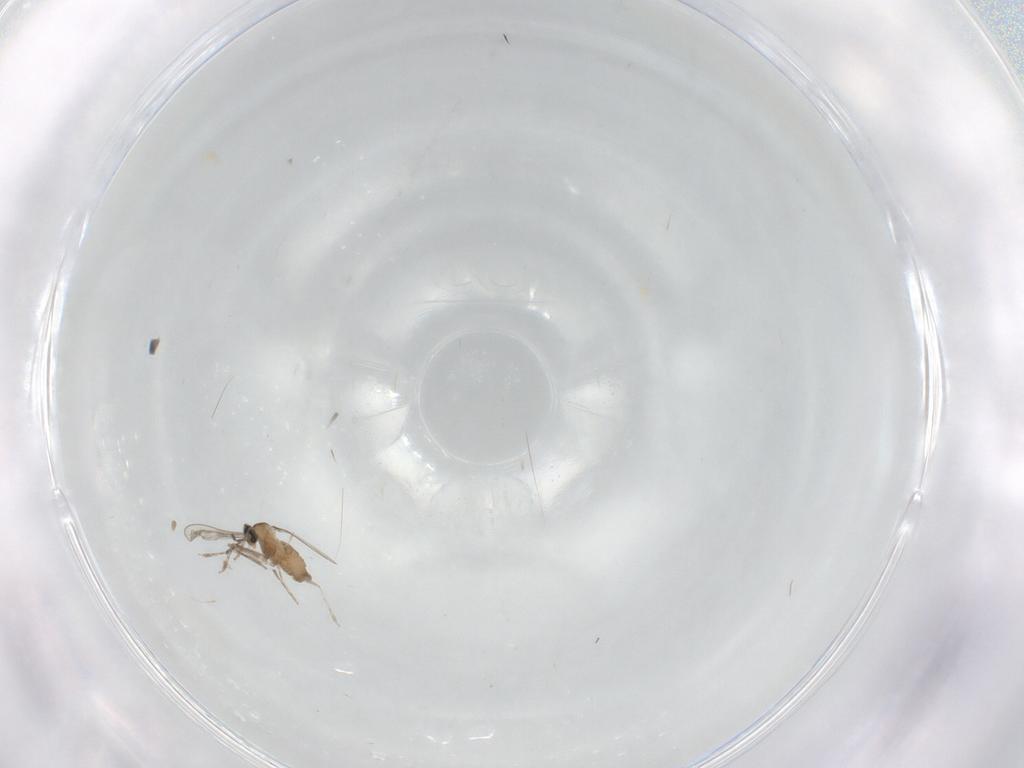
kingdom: Animalia
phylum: Arthropoda
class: Insecta
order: Diptera
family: Cecidomyiidae
